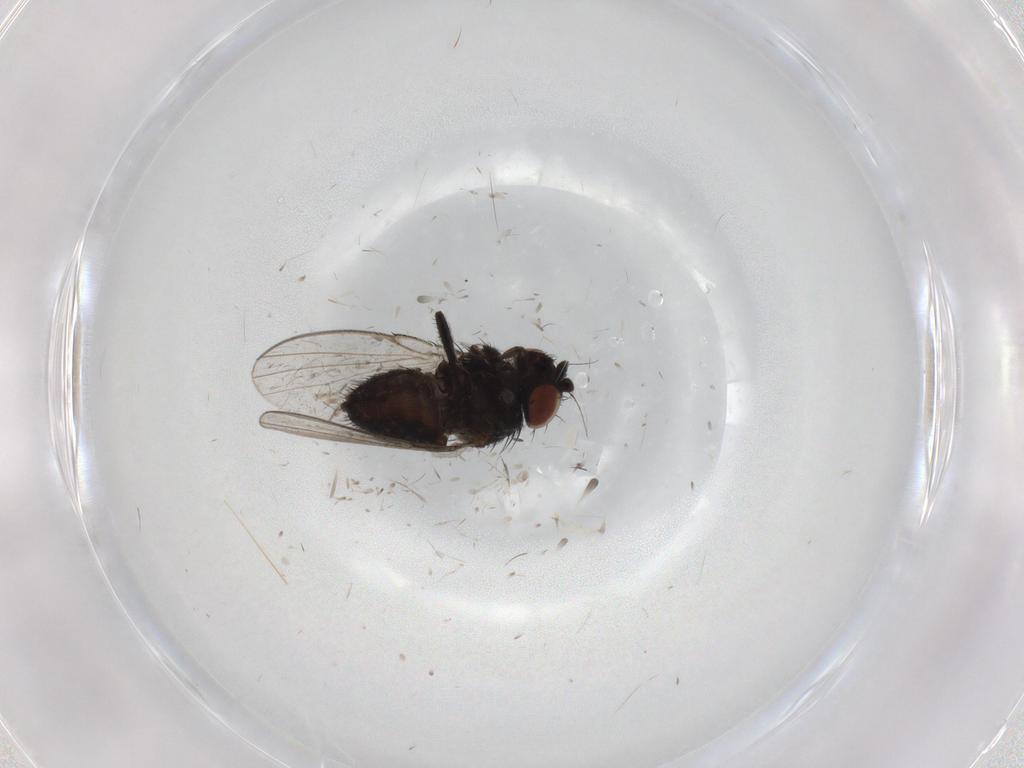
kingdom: Animalia
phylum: Arthropoda
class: Insecta
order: Diptera
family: Milichiidae
